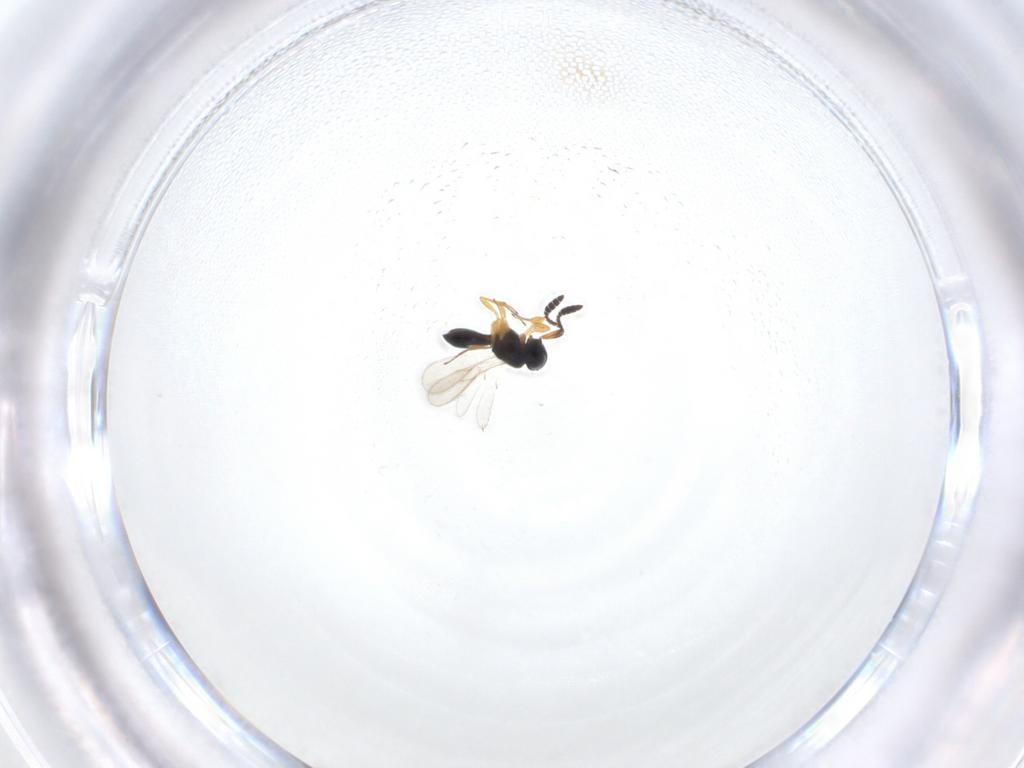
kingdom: Animalia
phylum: Arthropoda
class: Insecta
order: Hymenoptera
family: Scelionidae
